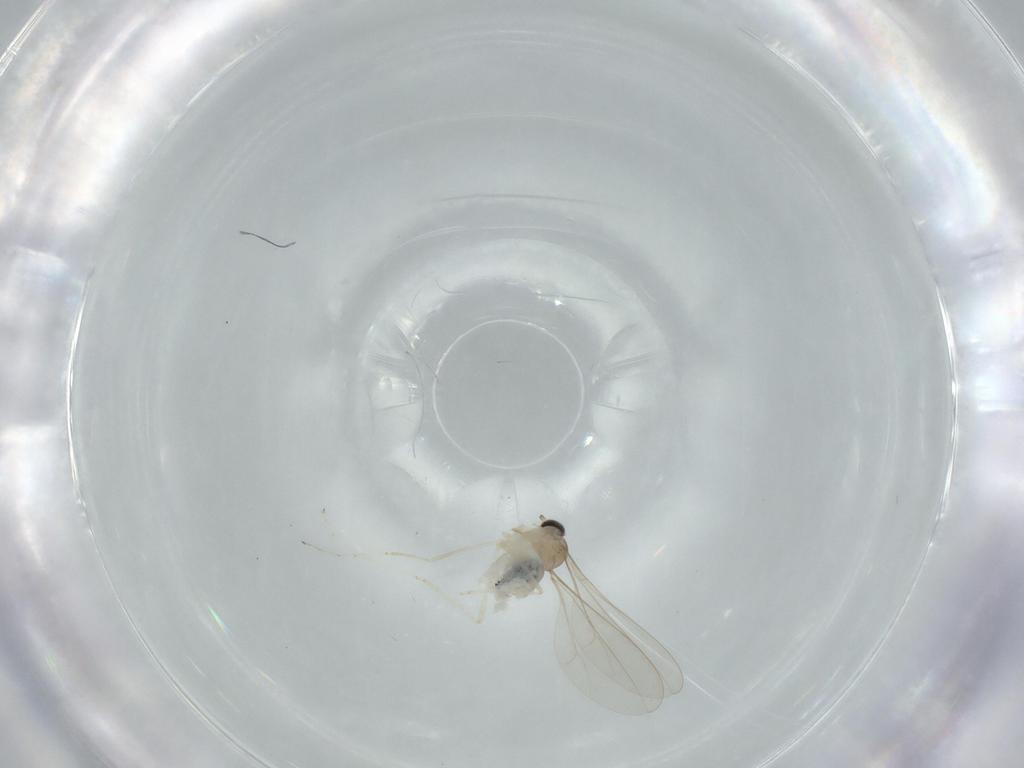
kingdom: Animalia
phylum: Arthropoda
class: Insecta
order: Diptera
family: Cecidomyiidae
